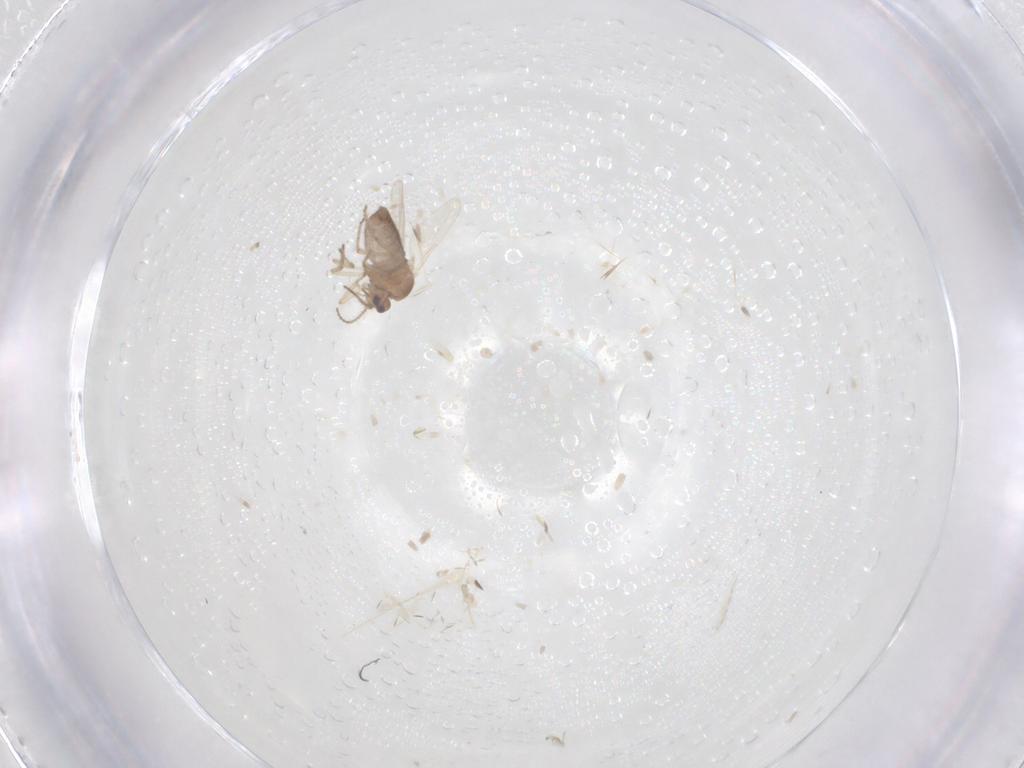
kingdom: Animalia
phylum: Arthropoda
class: Insecta
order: Diptera
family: Ceratopogonidae
